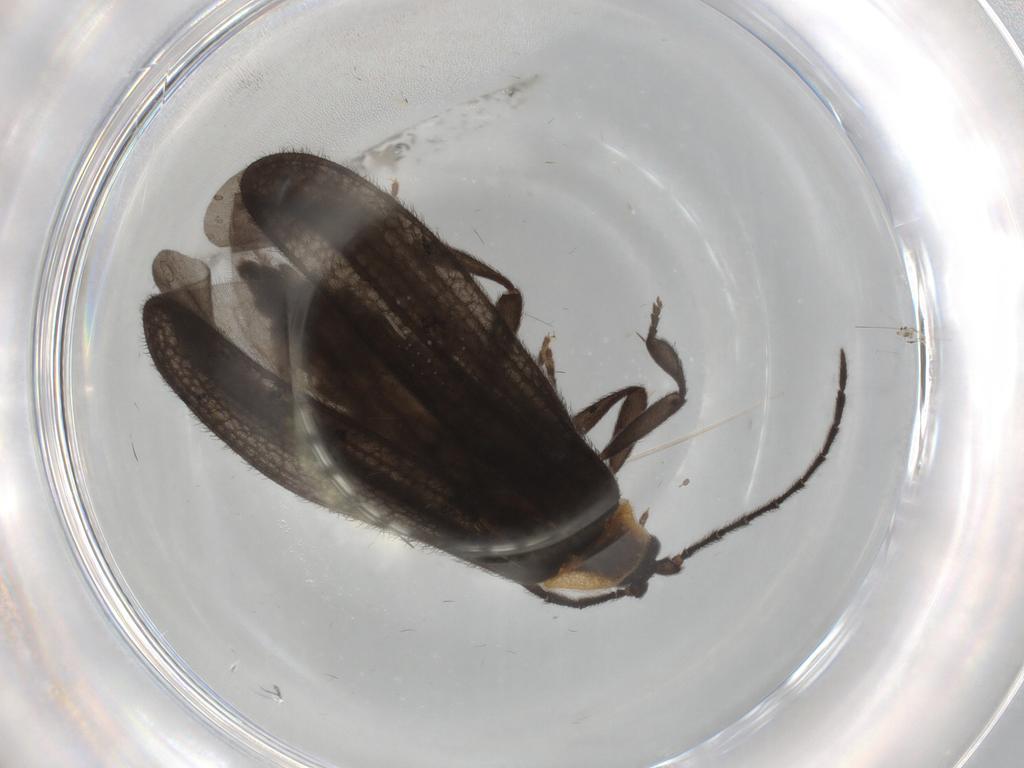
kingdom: Animalia
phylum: Arthropoda
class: Insecta
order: Coleoptera
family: Lycidae
